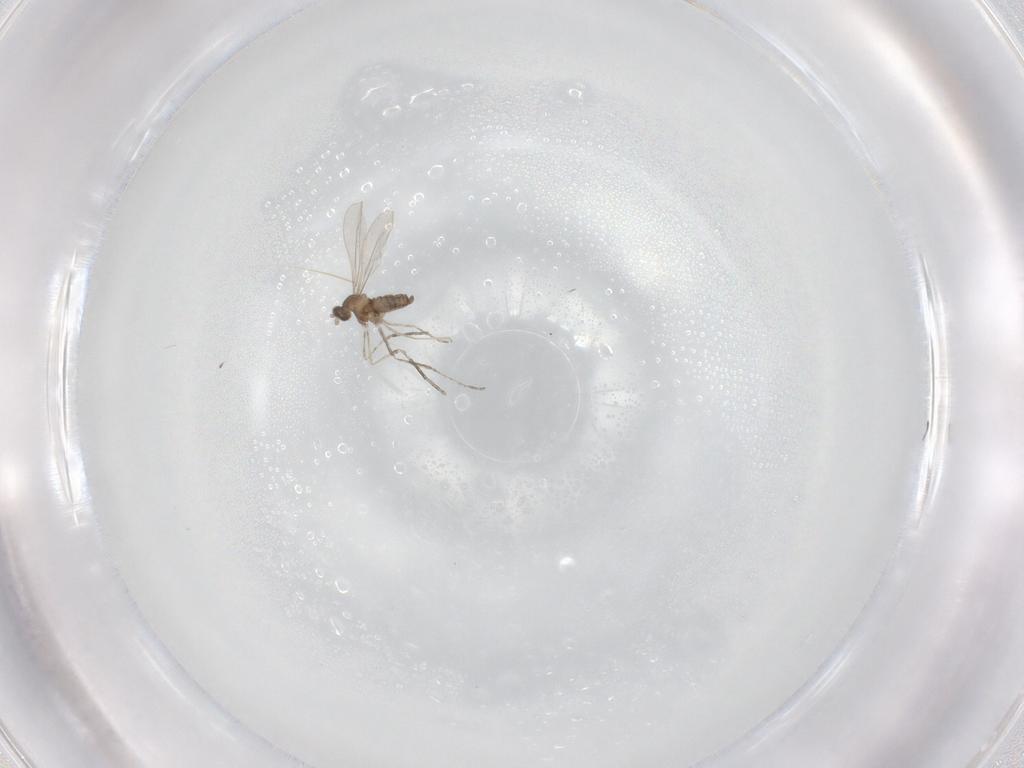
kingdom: Animalia
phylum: Arthropoda
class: Insecta
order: Diptera
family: Cecidomyiidae
